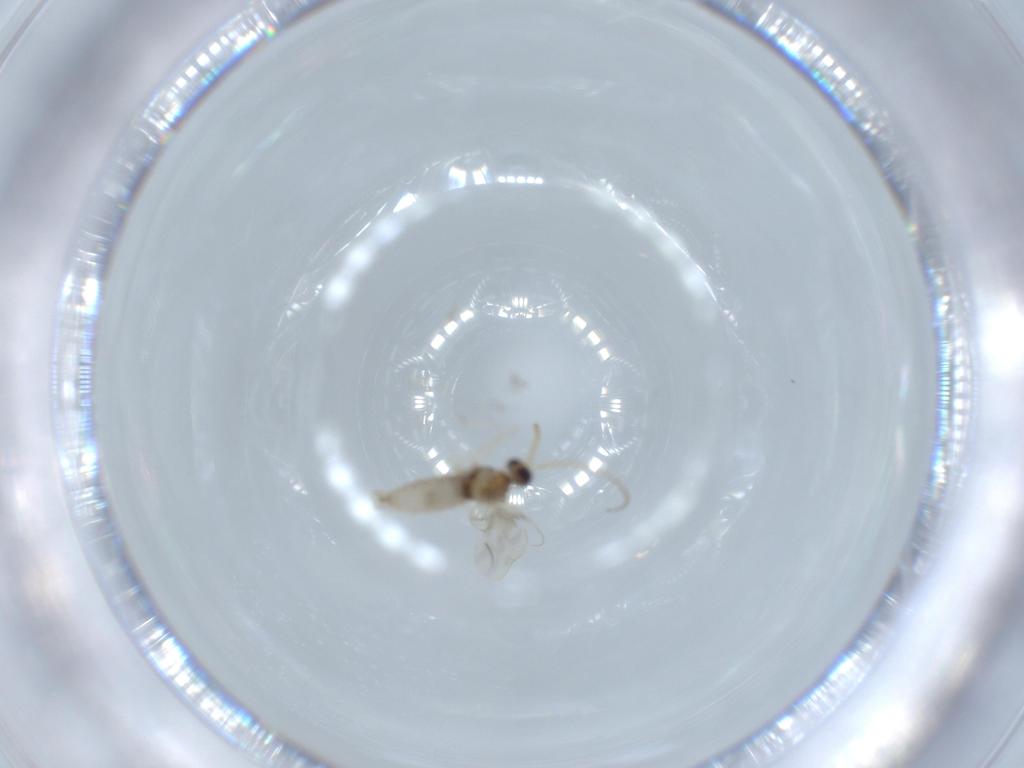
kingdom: Animalia
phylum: Arthropoda
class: Insecta
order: Diptera
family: Cecidomyiidae
